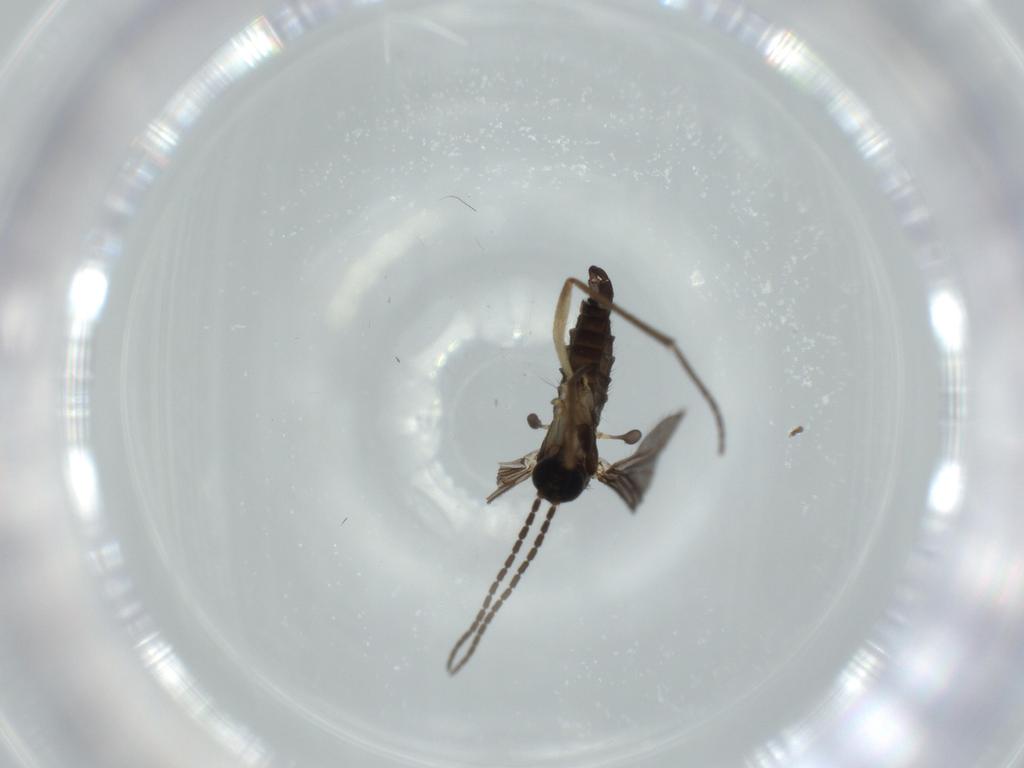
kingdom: Animalia
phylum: Arthropoda
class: Insecta
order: Diptera
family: Sciaridae
